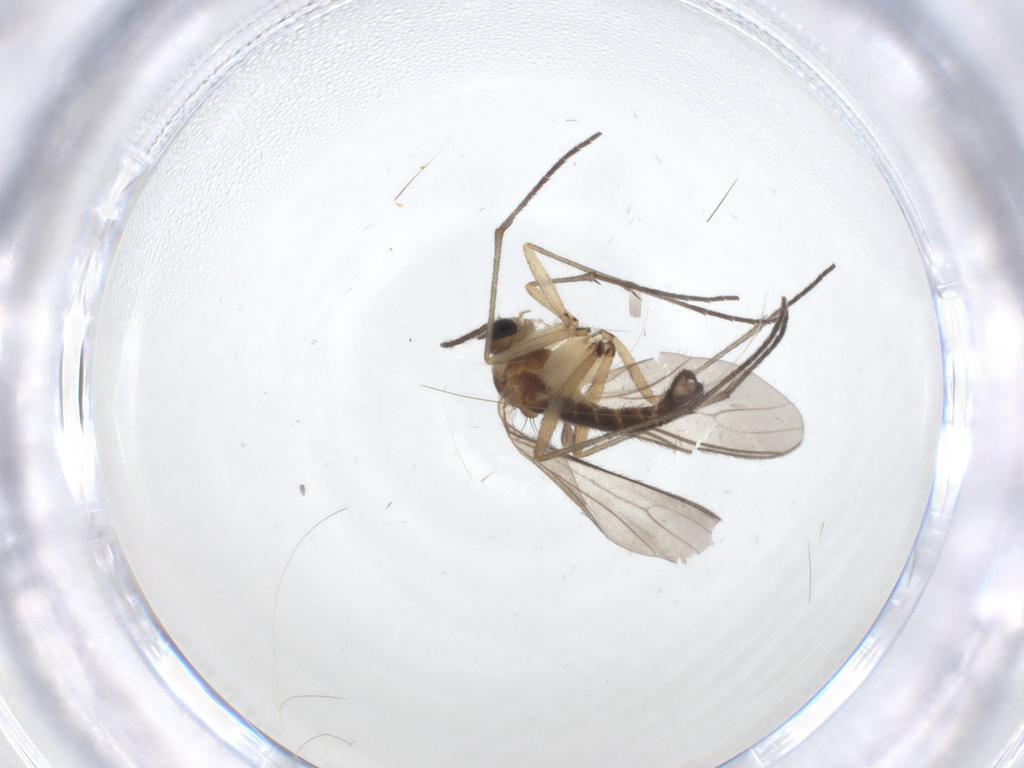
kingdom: Animalia
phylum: Arthropoda
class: Insecta
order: Diptera
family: Sciaridae
